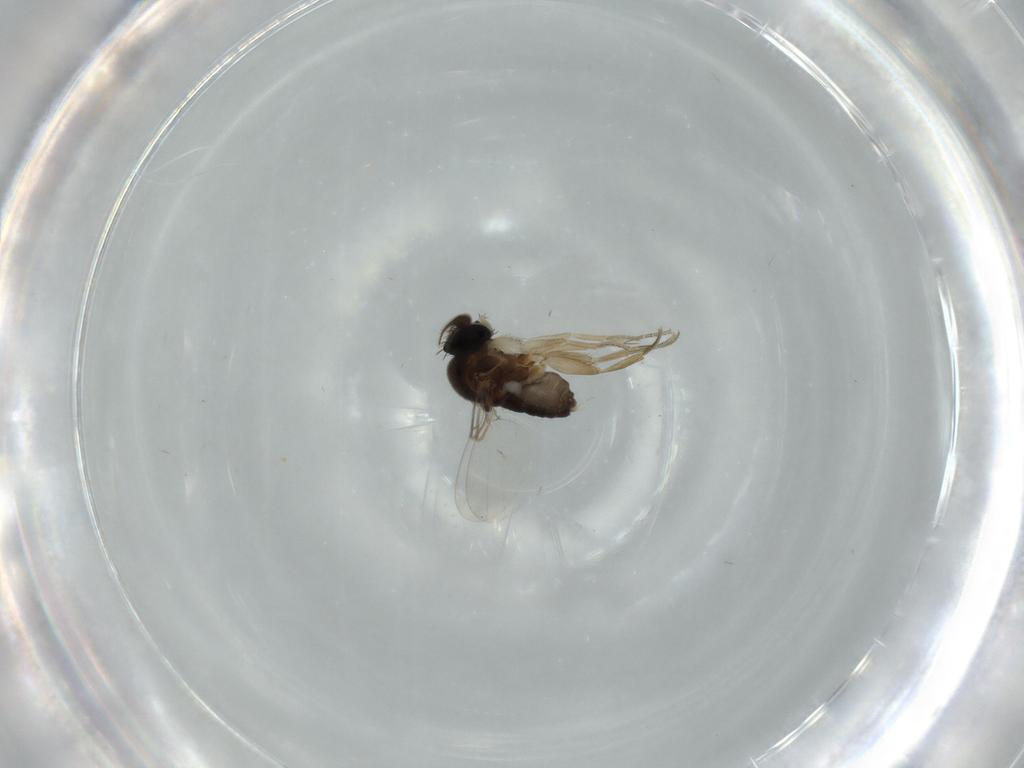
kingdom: Animalia
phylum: Arthropoda
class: Insecta
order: Diptera
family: Phoridae
